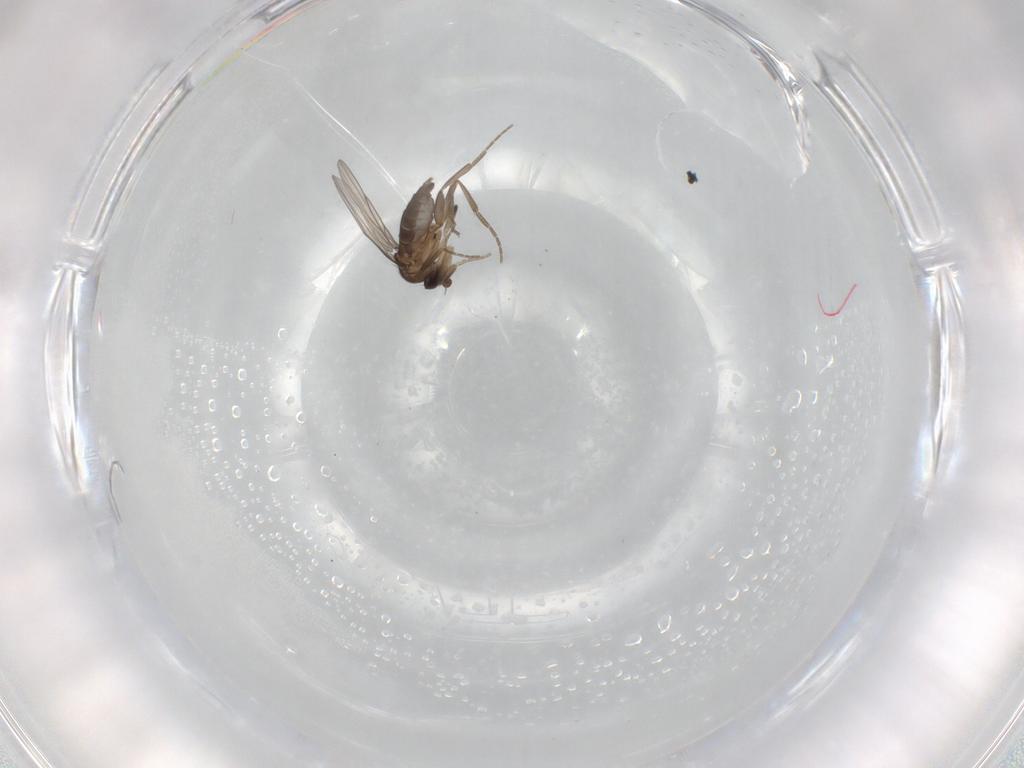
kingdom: Animalia
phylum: Arthropoda
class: Insecta
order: Diptera
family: Phoridae
